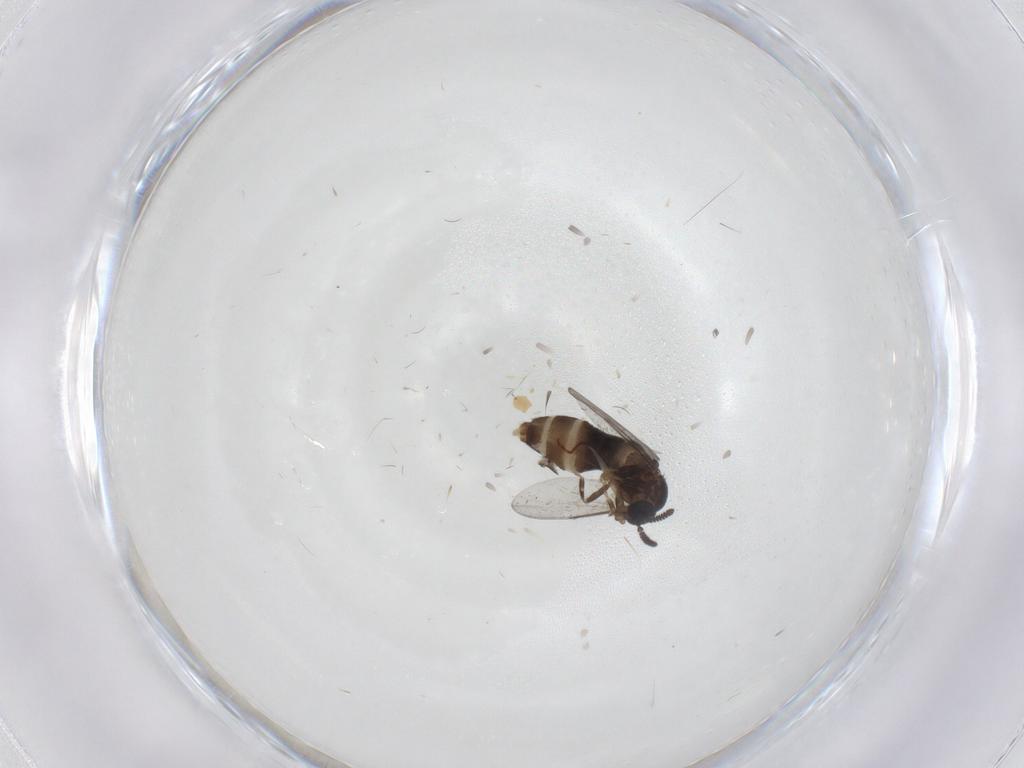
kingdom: Animalia
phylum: Arthropoda
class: Insecta
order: Diptera
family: Scatopsidae
